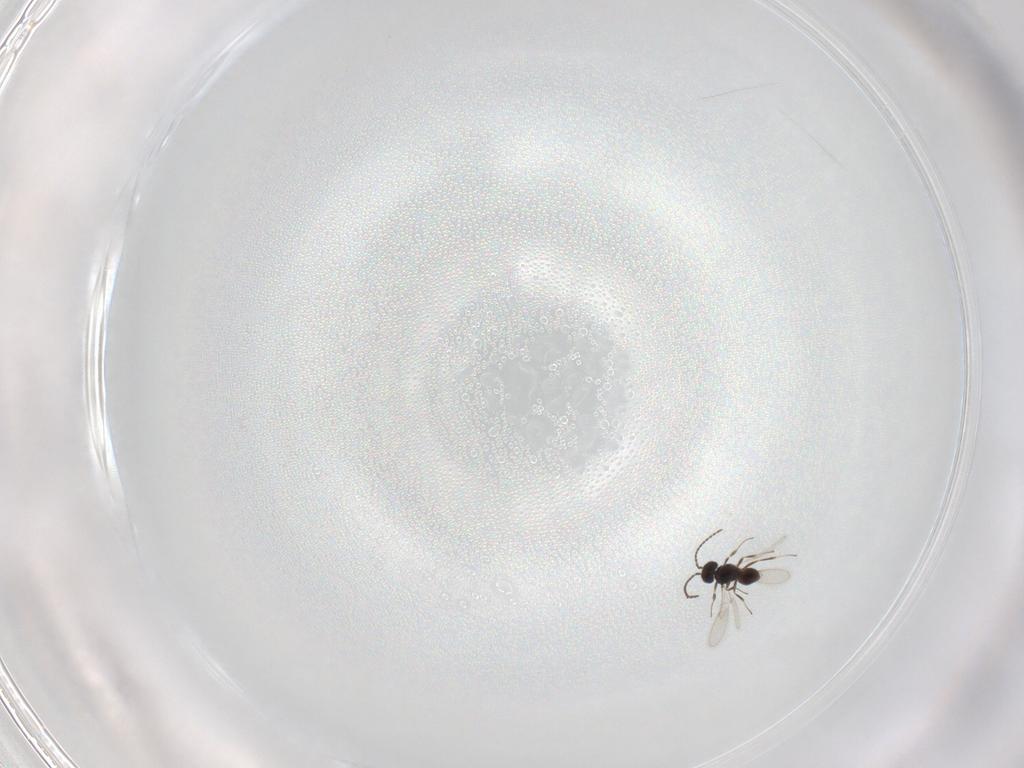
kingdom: Animalia
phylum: Arthropoda
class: Insecta
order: Hymenoptera
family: Scelionidae
